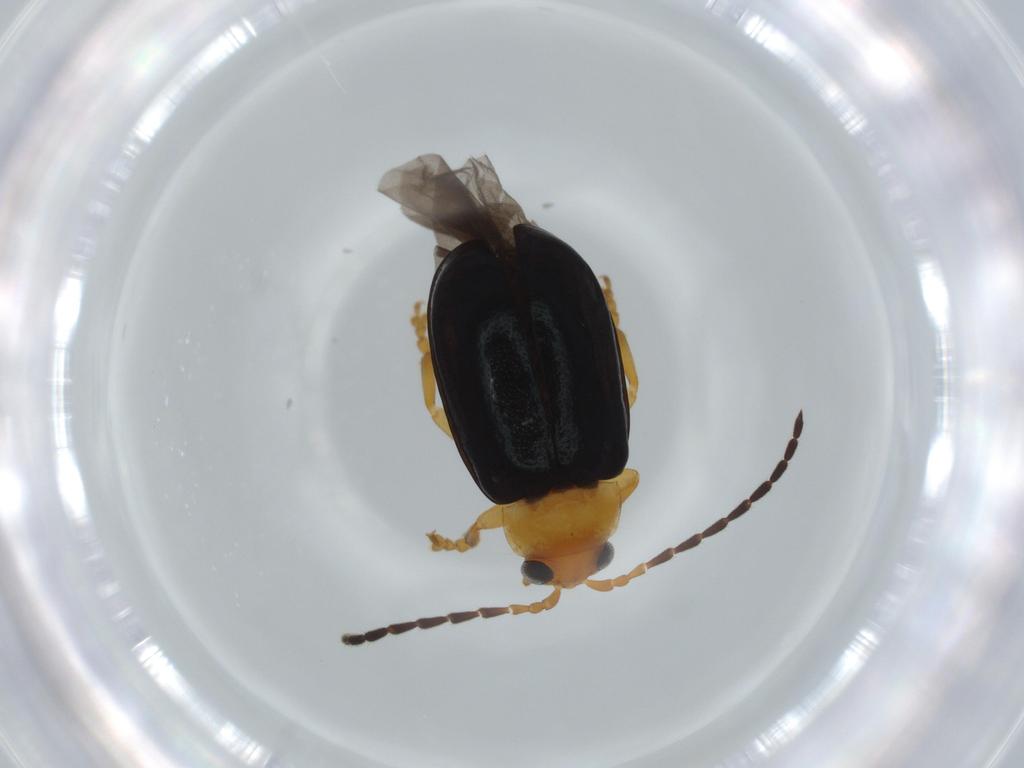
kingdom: Animalia
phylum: Arthropoda
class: Insecta
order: Coleoptera
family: Chrysomelidae
